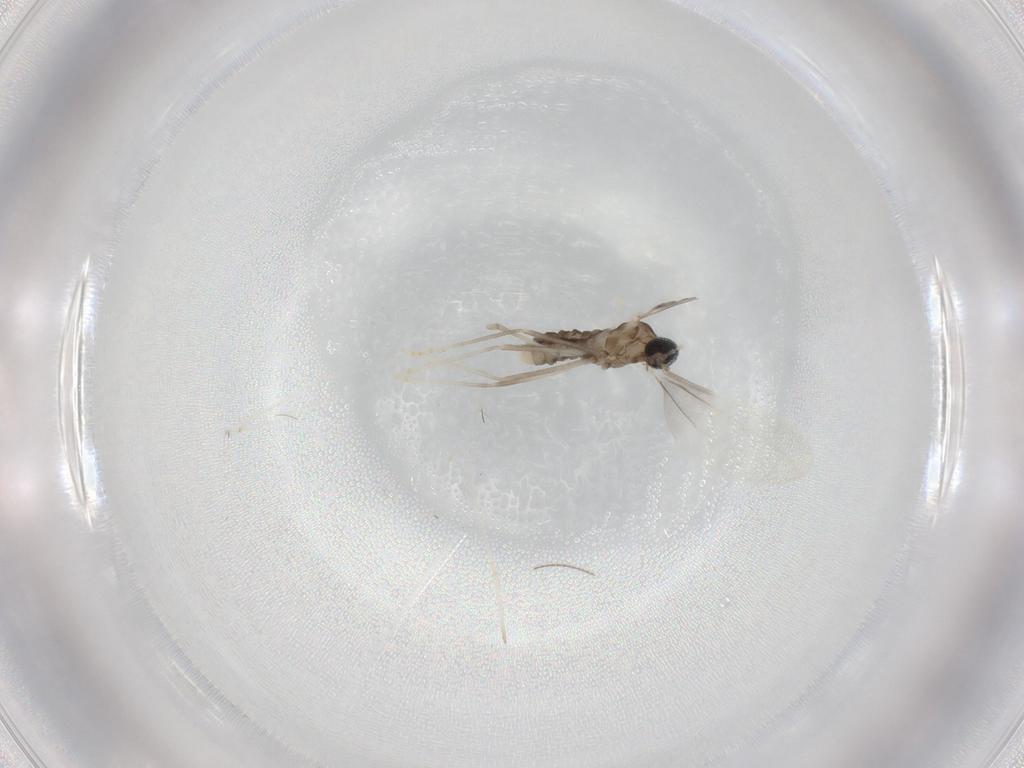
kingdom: Animalia
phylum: Arthropoda
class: Insecta
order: Diptera
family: Cecidomyiidae
